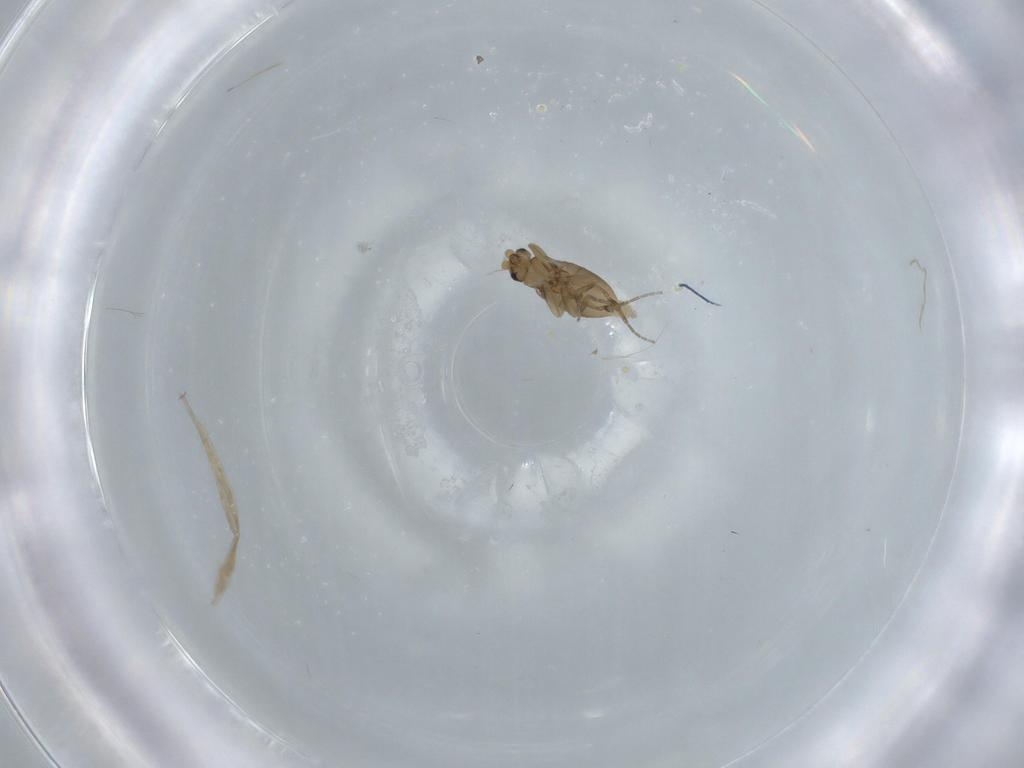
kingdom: Animalia
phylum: Arthropoda
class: Insecta
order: Diptera
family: Phoridae
